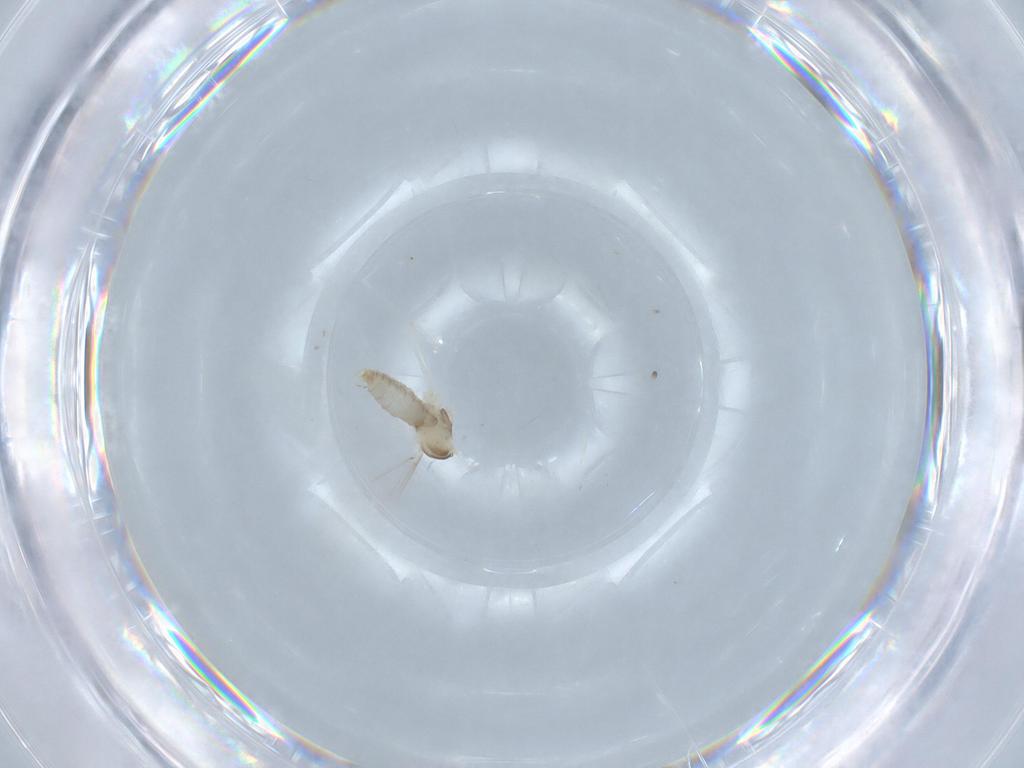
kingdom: Animalia
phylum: Arthropoda
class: Insecta
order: Diptera
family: Cecidomyiidae
